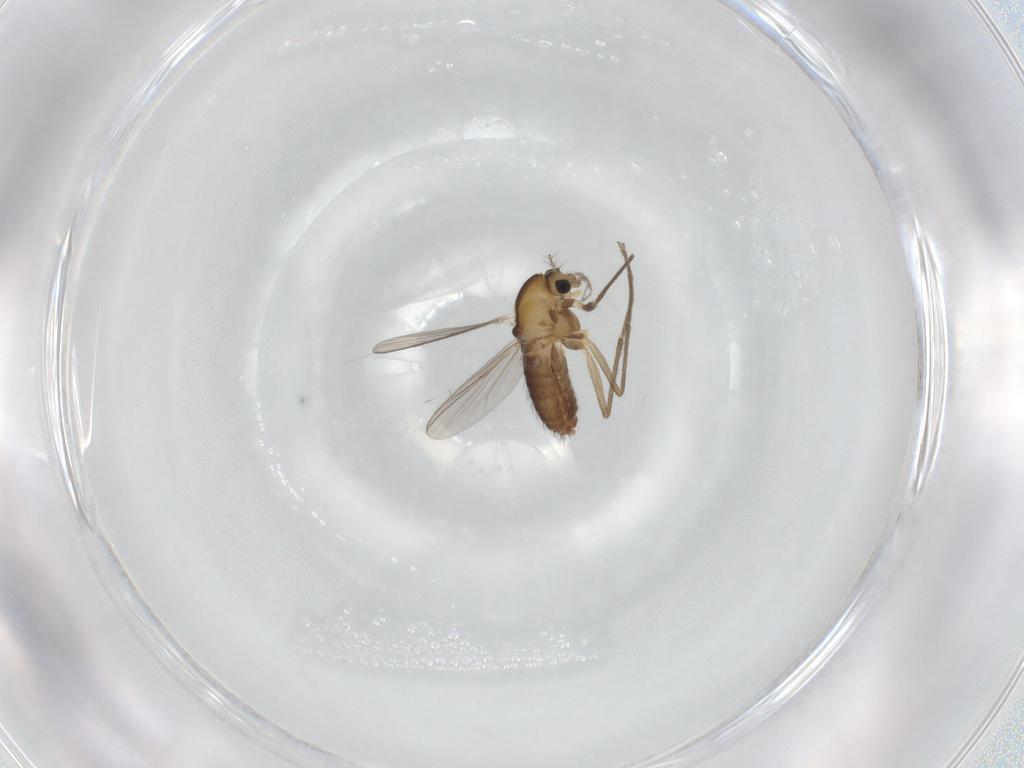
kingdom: Animalia
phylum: Arthropoda
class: Insecta
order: Diptera
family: Chironomidae
